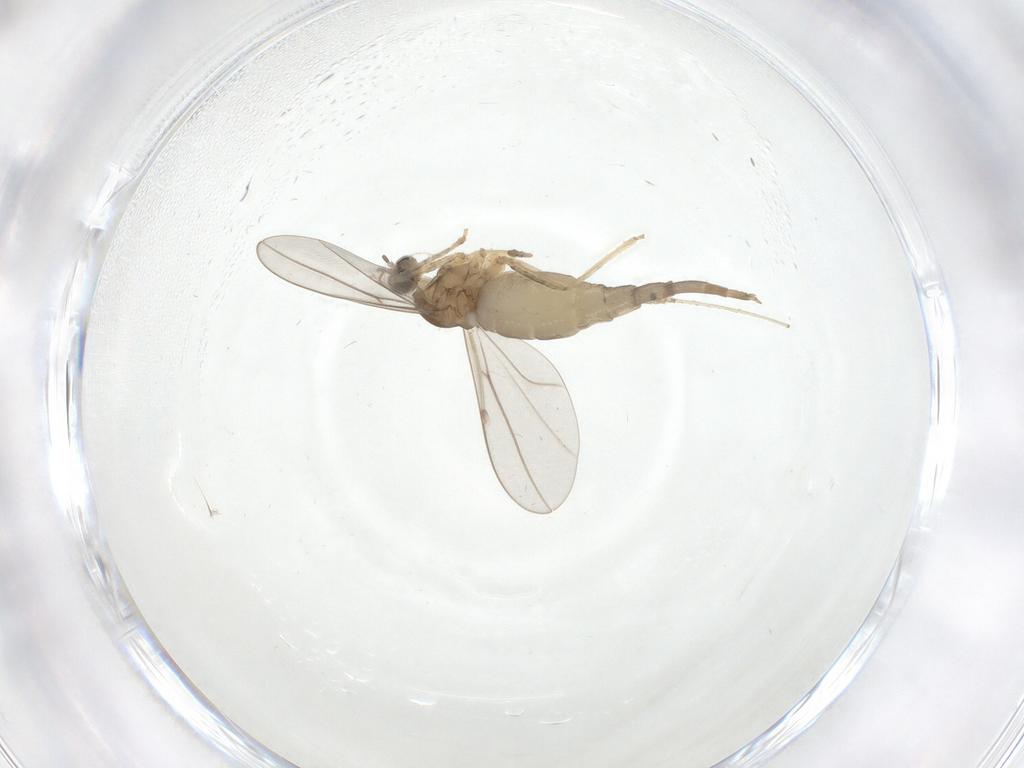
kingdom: Animalia
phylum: Arthropoda
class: Insecta
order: Diptera
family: Cecidomyiidae
